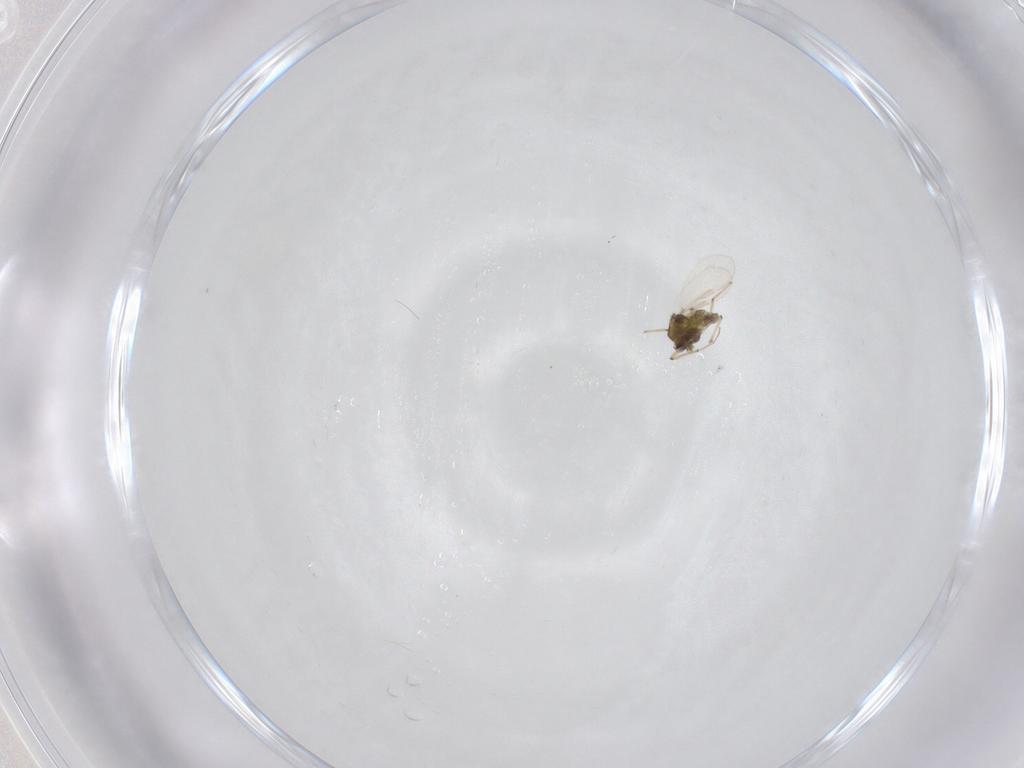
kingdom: Animalia
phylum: Arthropoda
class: Insecta
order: Diptera
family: Chironomidae
